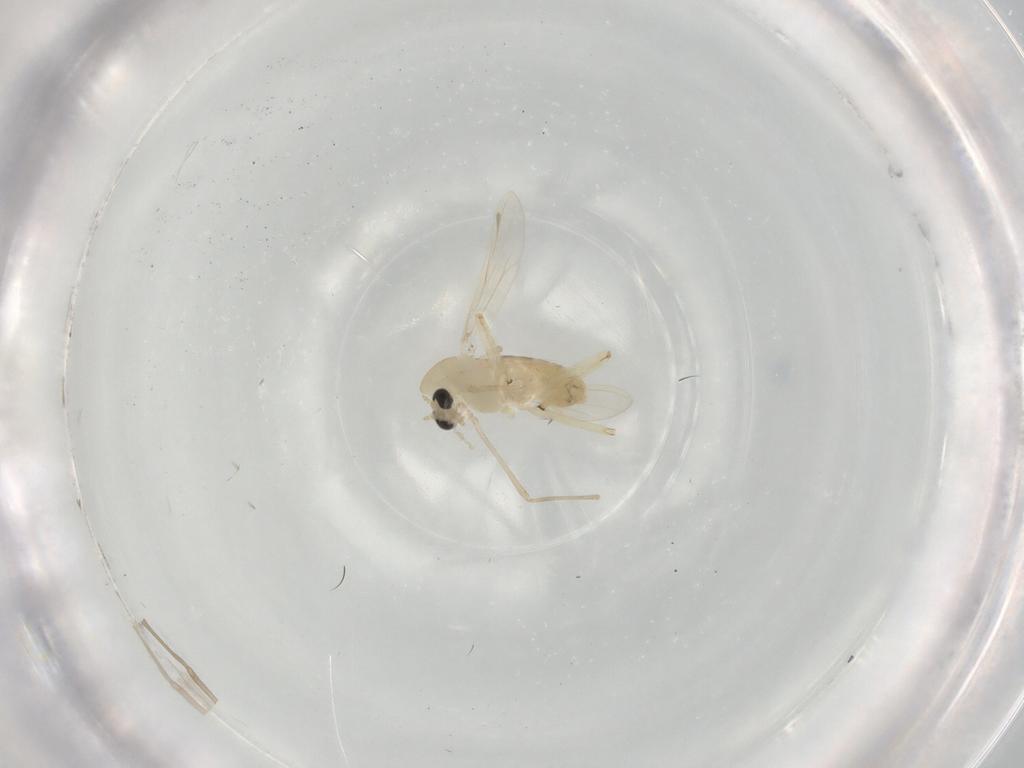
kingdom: Animalia
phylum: Arthropoda
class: Insecta
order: Diptera
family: Chironomidae
